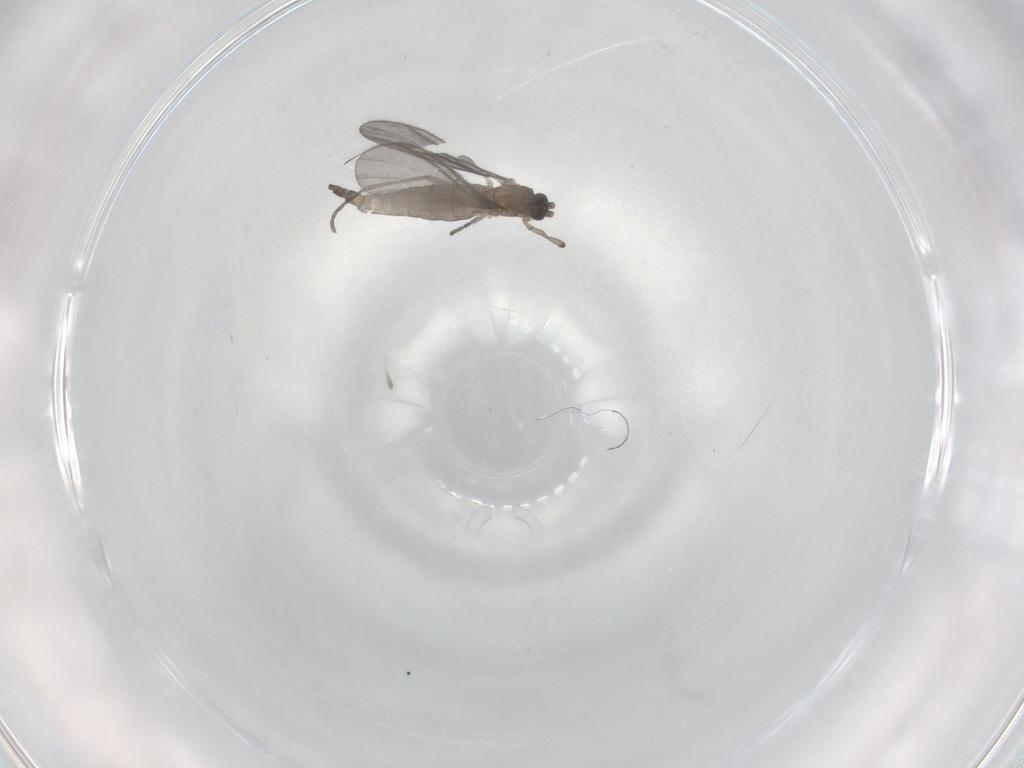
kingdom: Animalia
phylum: Arthropoda
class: Insecta
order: Diptera
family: Sciaridae
